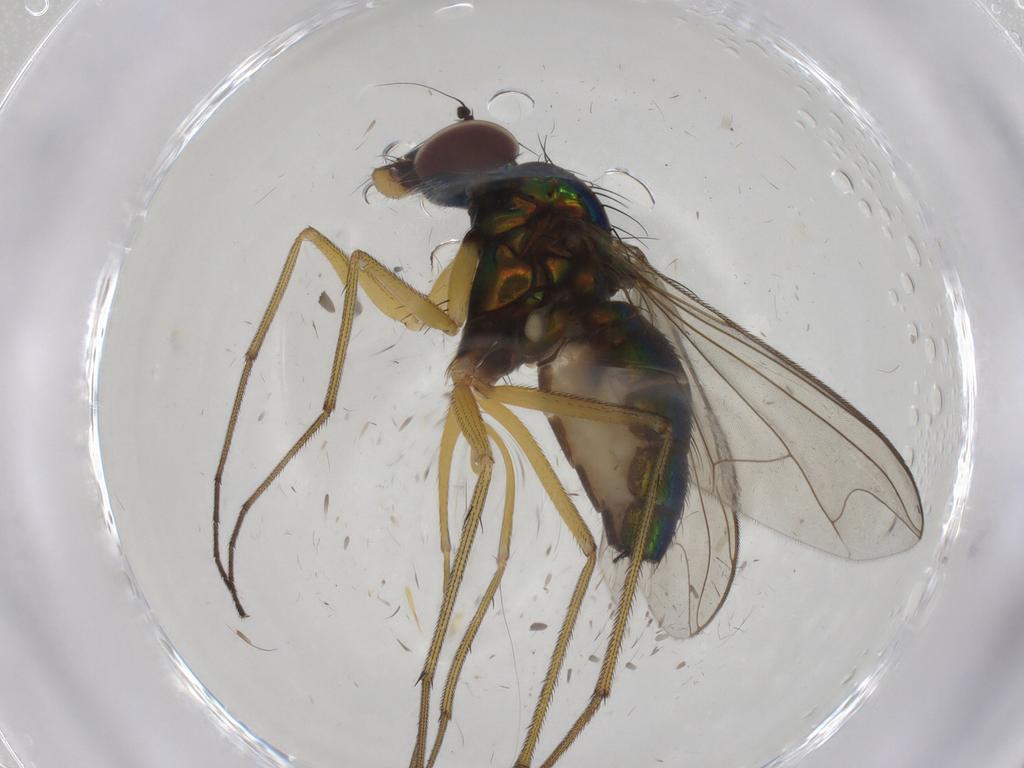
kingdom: Animalia
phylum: Arthropoda
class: Insecta
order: Diptera
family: Dolichopodidae
